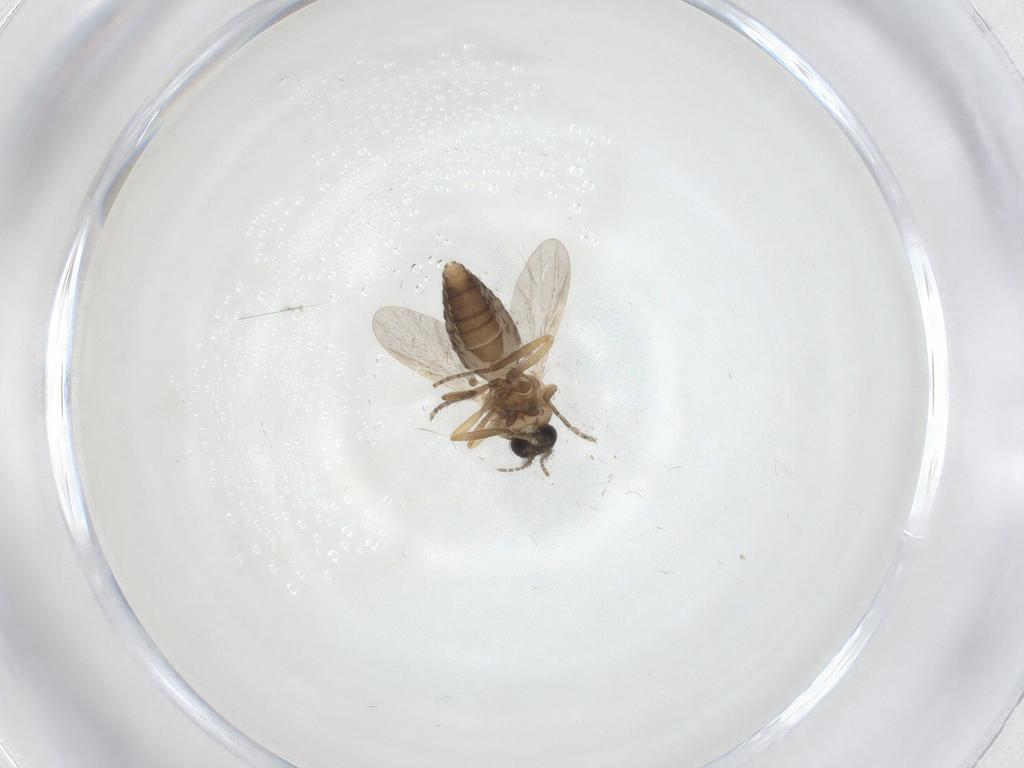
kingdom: Animalia
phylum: Arthropoda
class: Insecta
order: Diptera
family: Ceratopogonidae
